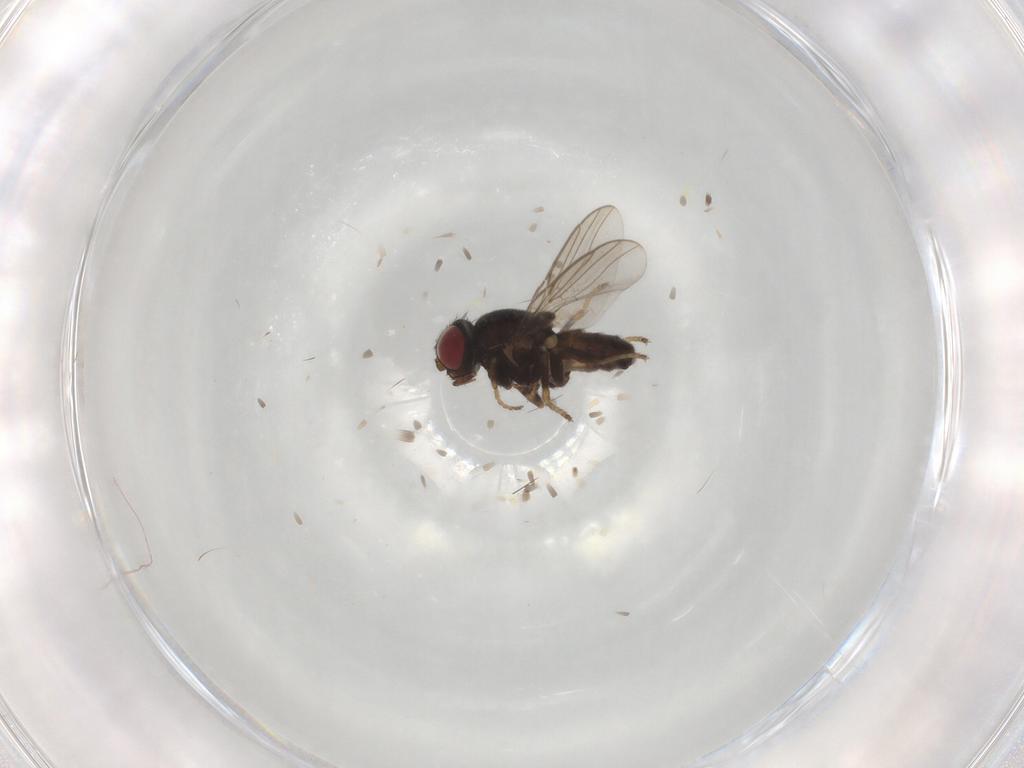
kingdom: Animalia
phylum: Arthropoda
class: Insecta
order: Diptera
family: Chloropidae
